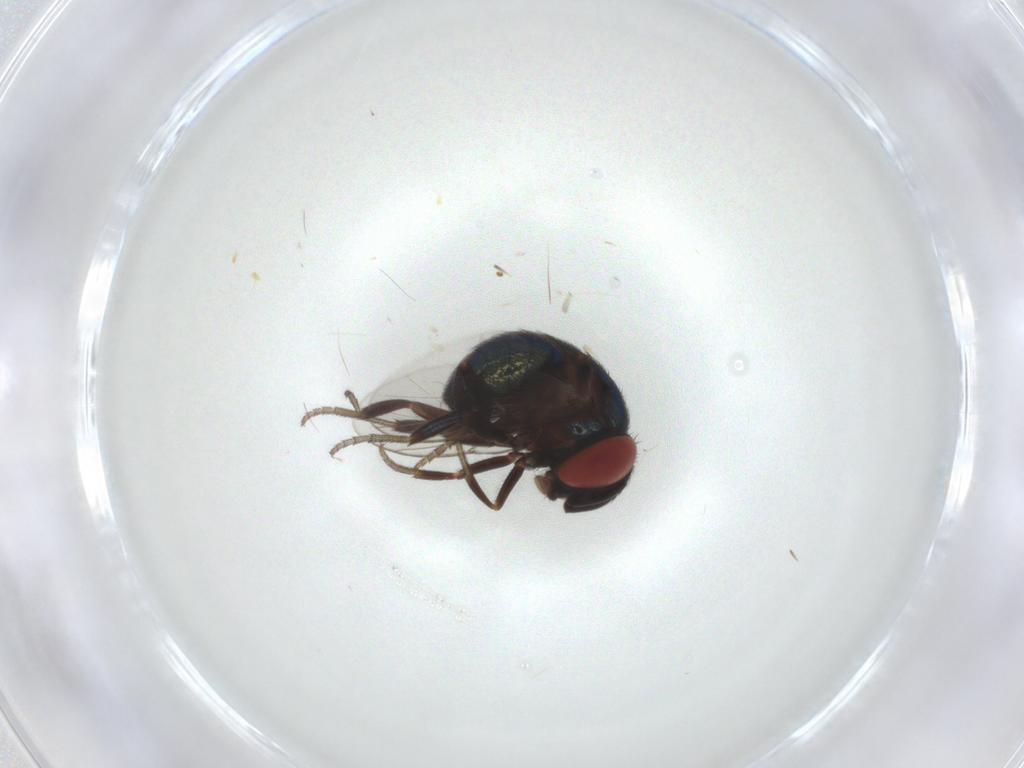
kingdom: Animalia
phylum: Arthropoda
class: Insecta
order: Diptera
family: Cryptochetidae
